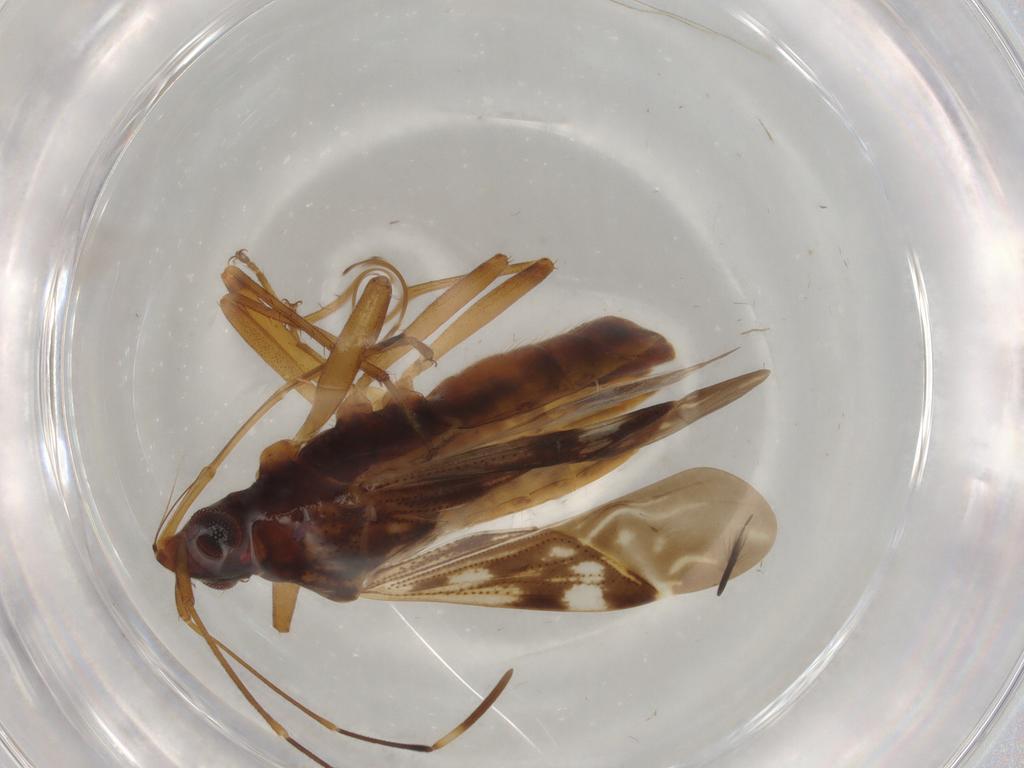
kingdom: Animalia
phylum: Arthropoda
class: Insecta
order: Hemiptera
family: Rhyparochromidae
